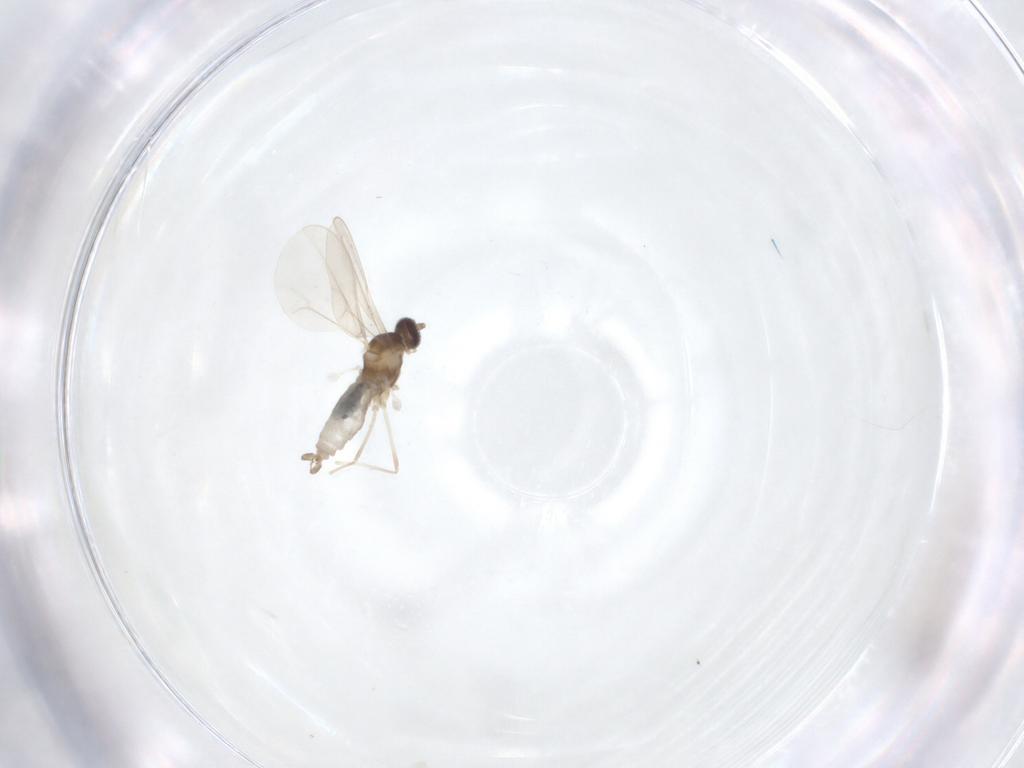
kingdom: Animalia
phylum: Arthropoda
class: Insecta
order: Diptera
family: Cecidomyiidae
